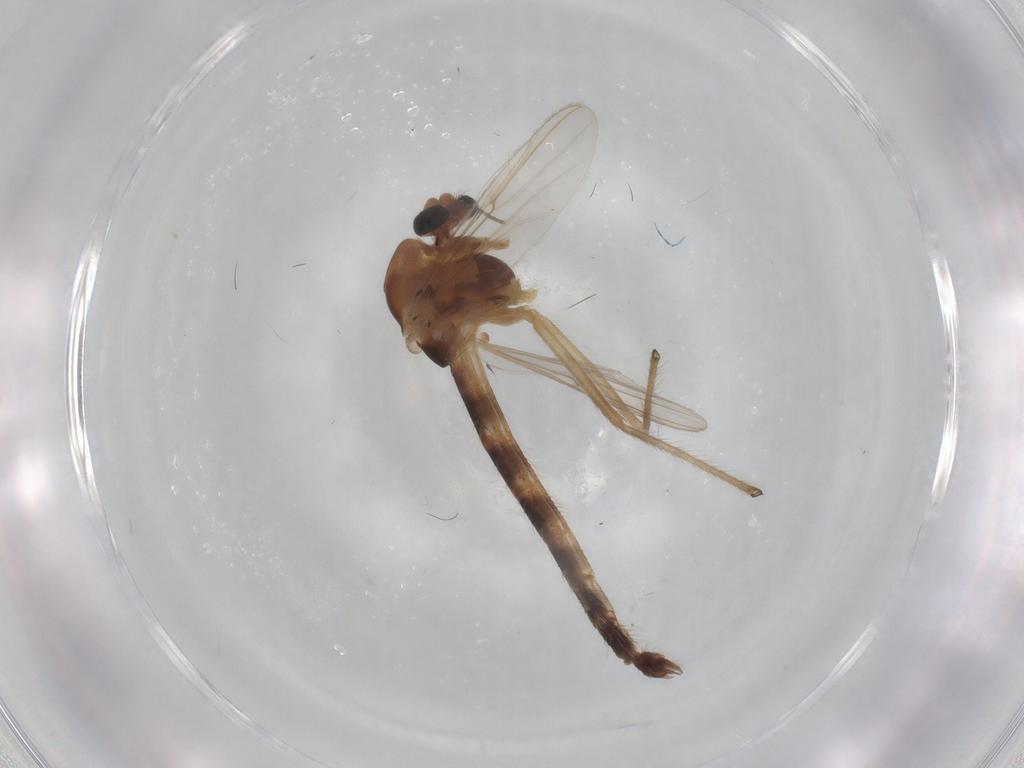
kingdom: Animalia
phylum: Arthropoda
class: Insecta
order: Diptera
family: Chironomidae
